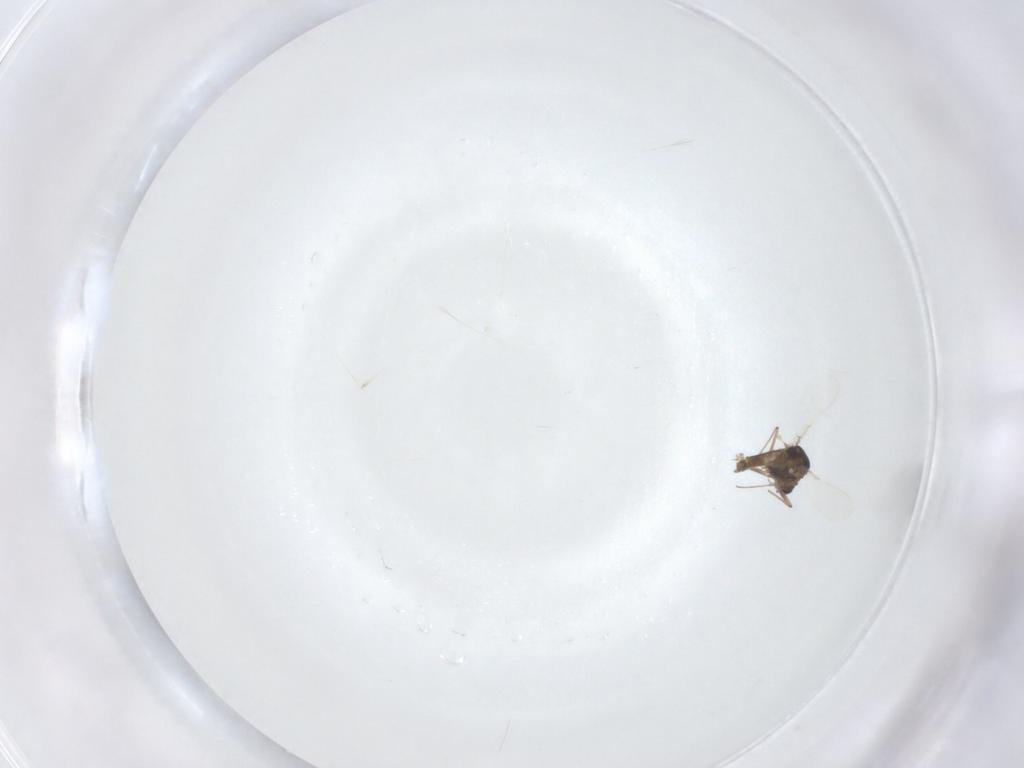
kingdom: Animalia
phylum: Arthropoda
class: Insecta
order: Diptera
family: Chironomidae
